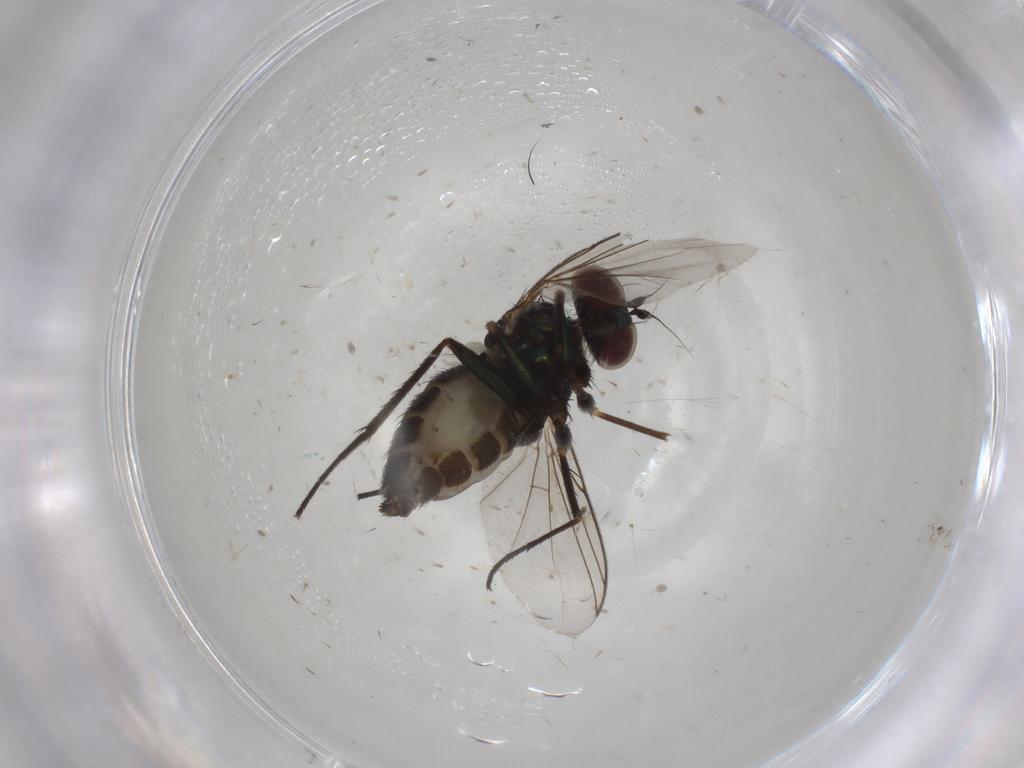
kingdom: Animalia
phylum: Arthropoda
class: Insecta
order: Diptera
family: Dolichopodidae
